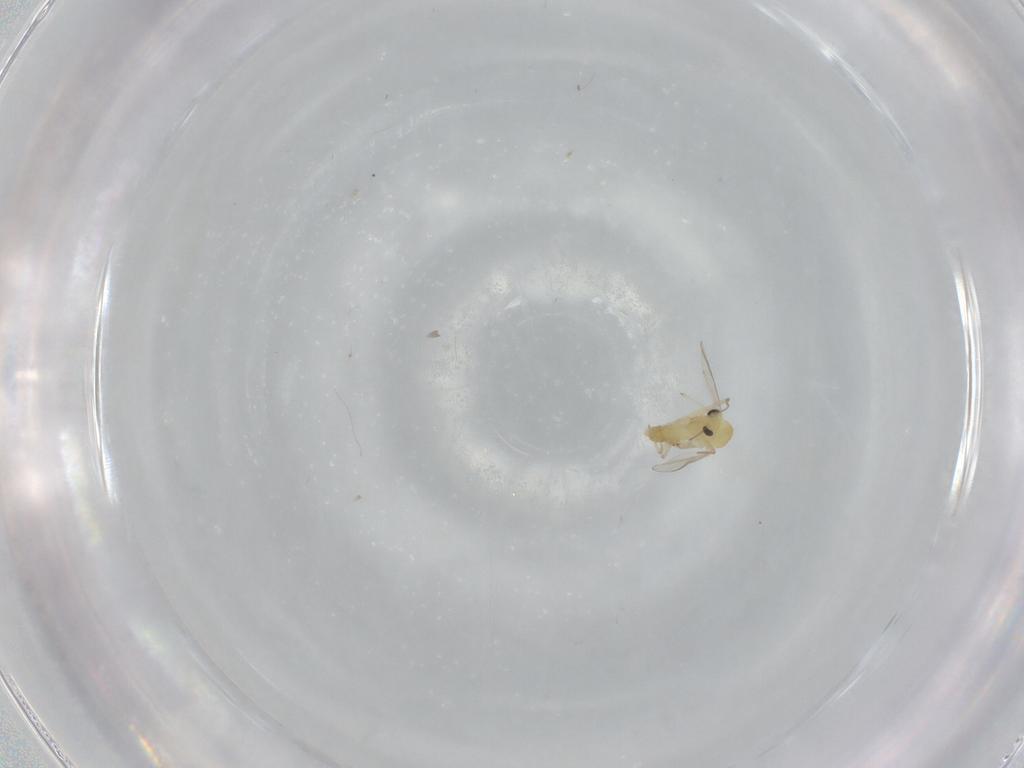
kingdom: Animalia
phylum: Arthropoda
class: Insecta
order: Diptera
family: Chironomidae
